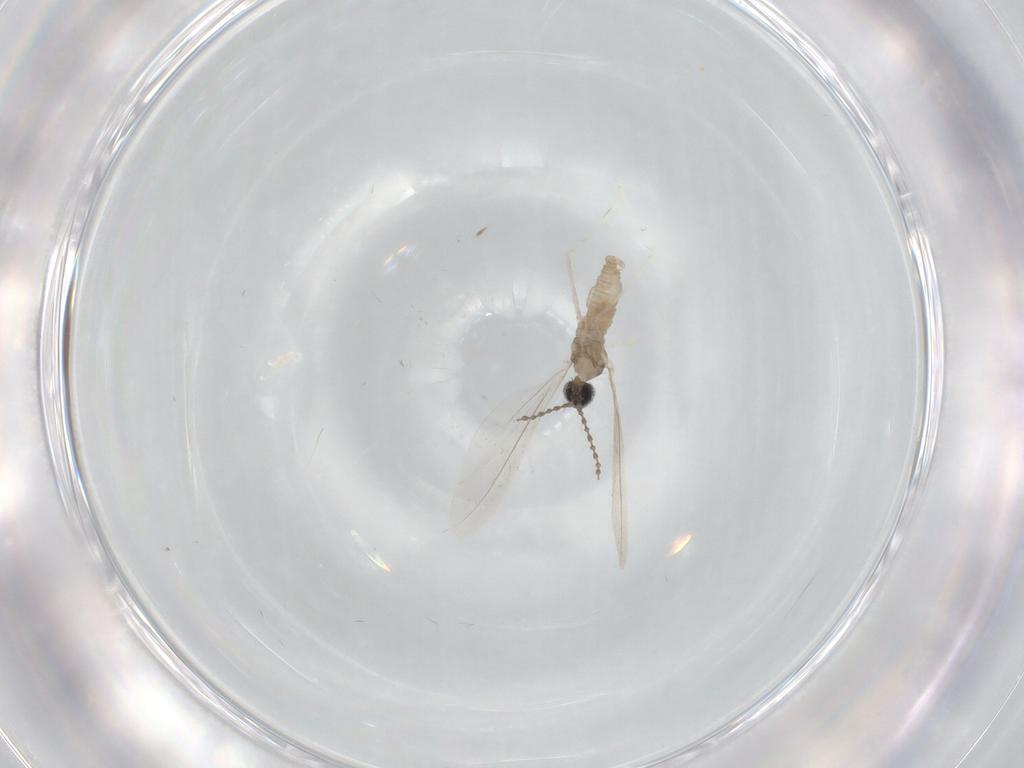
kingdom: Animalia
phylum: Arthropoda
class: Insecta
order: Diptera
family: Cecidomyiidae
